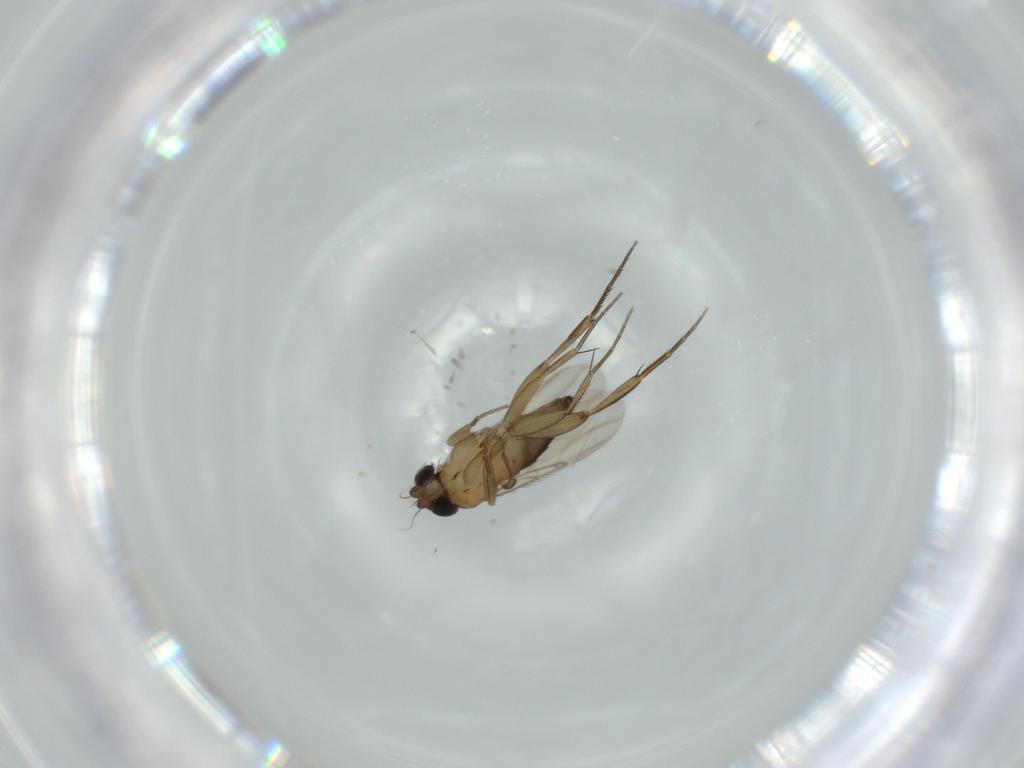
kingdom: Animalia
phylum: Arthropoda
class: Insecta
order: Diptera
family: Phoridae
